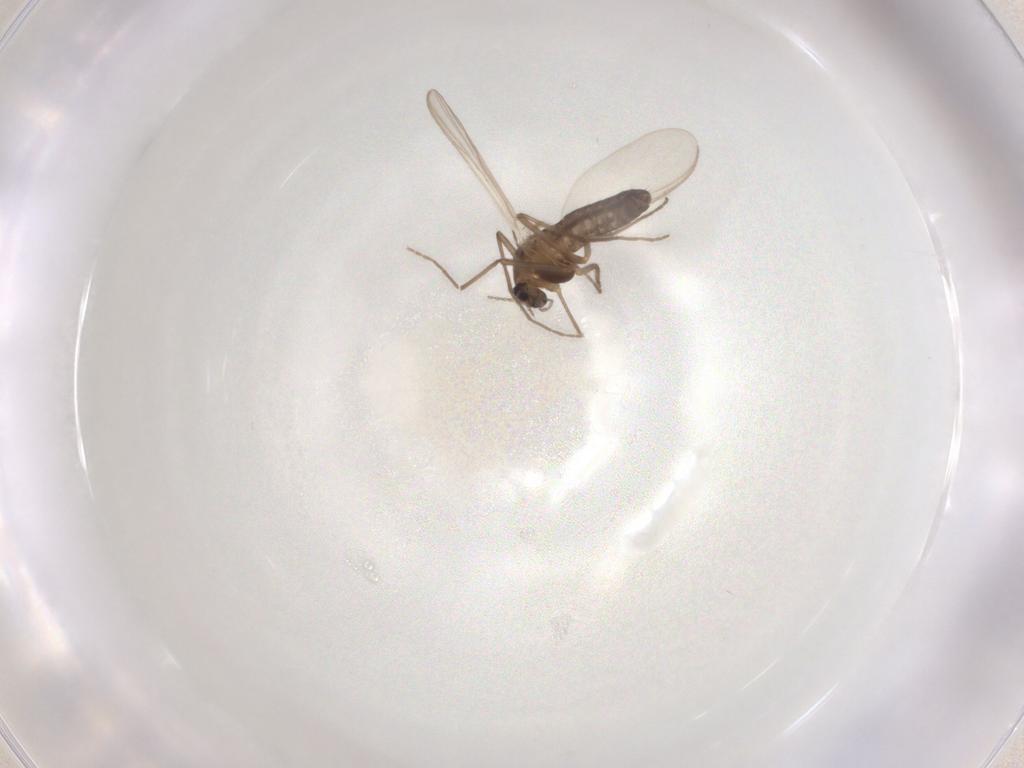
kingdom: Animalia
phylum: Arthropoda
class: Insecta
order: Diptera
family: Chironomidae
